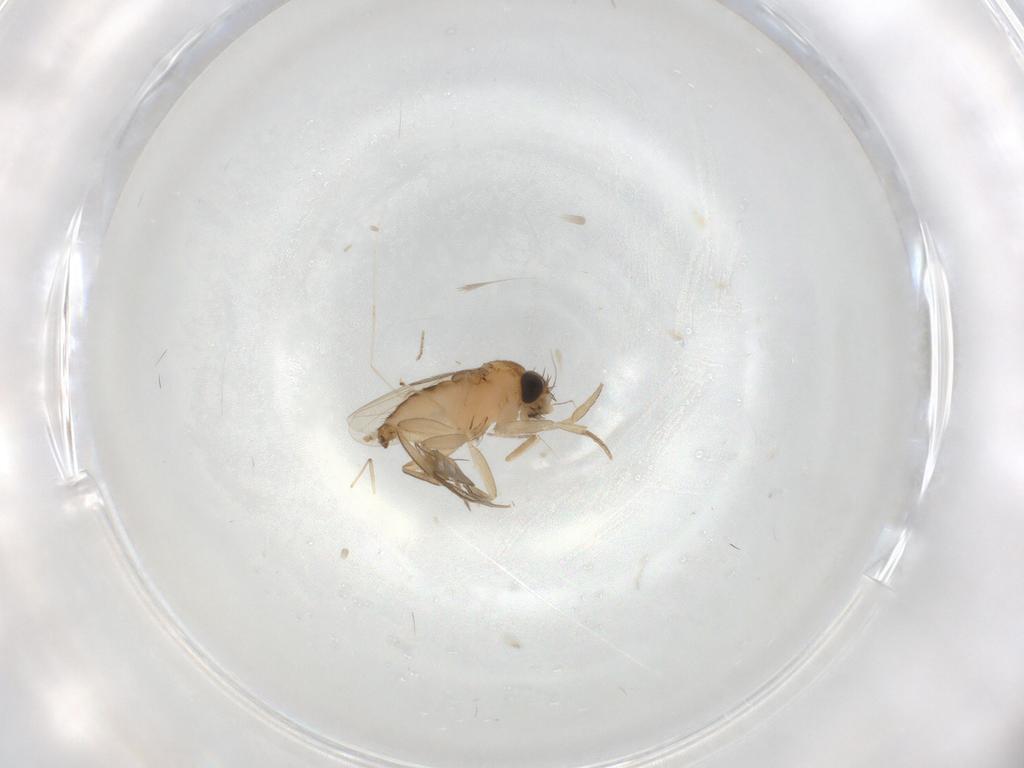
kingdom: Animalia
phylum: Arthropoda
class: Insecta
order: Diptera
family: Phoridae
